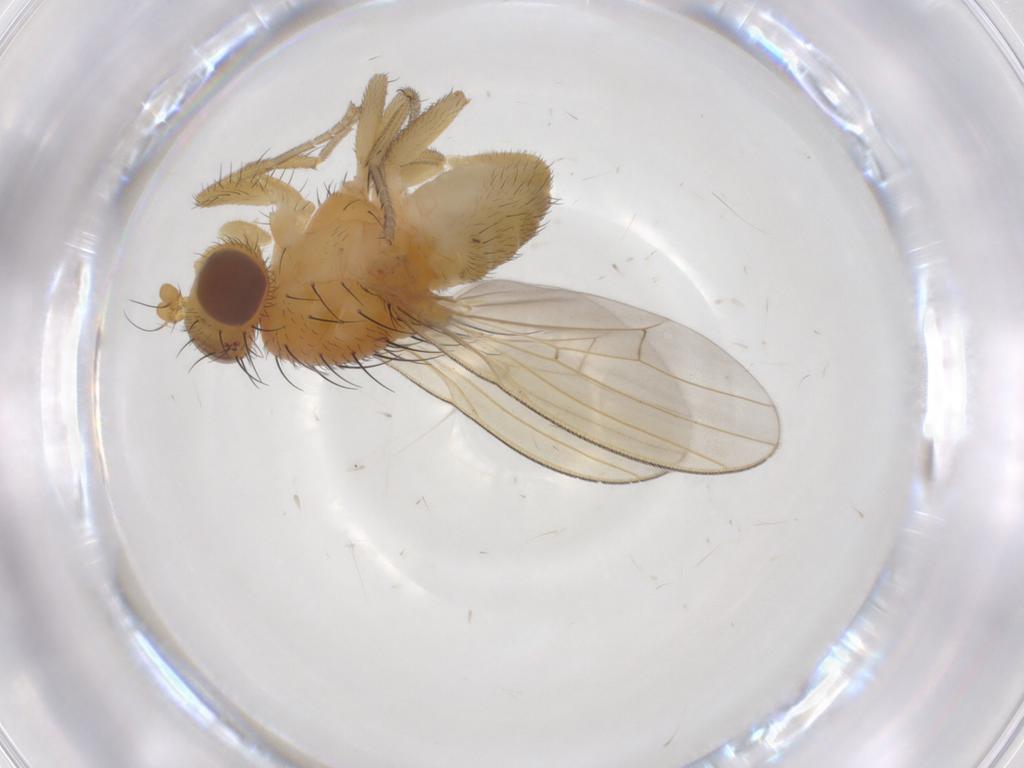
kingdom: Animalia
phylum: Arthropoda
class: Insecta
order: Diptera
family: Lauxaniidae
